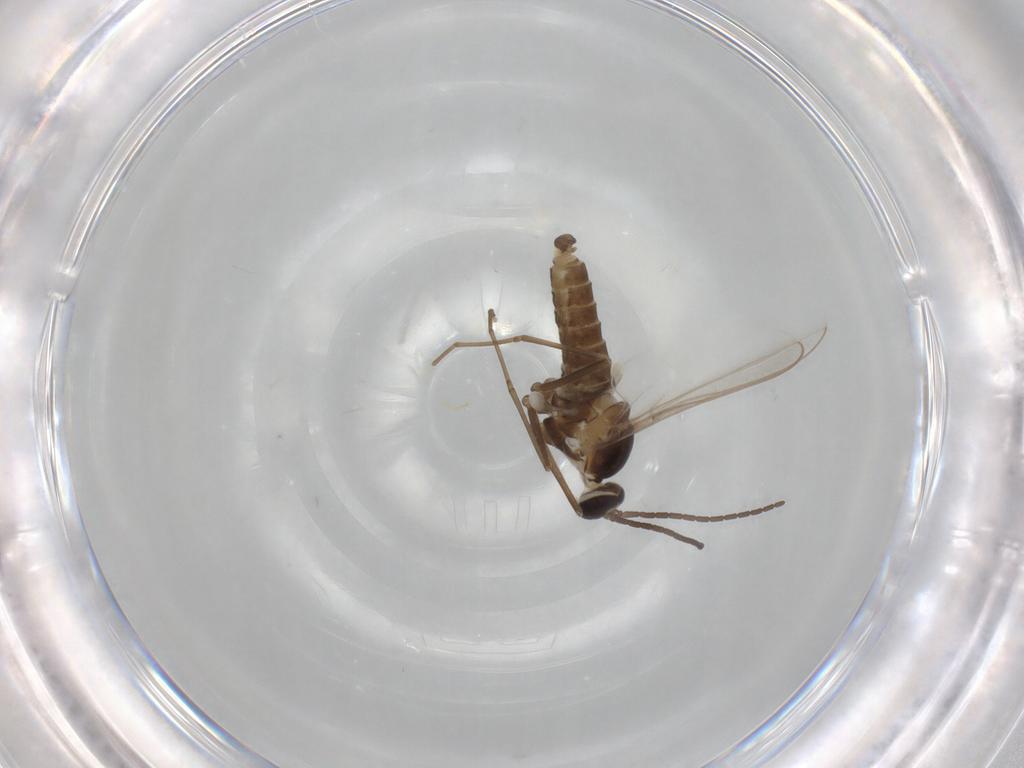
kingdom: Animalia
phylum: Arthropoda
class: Insecta
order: Diptera
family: Cecidomyiidae
